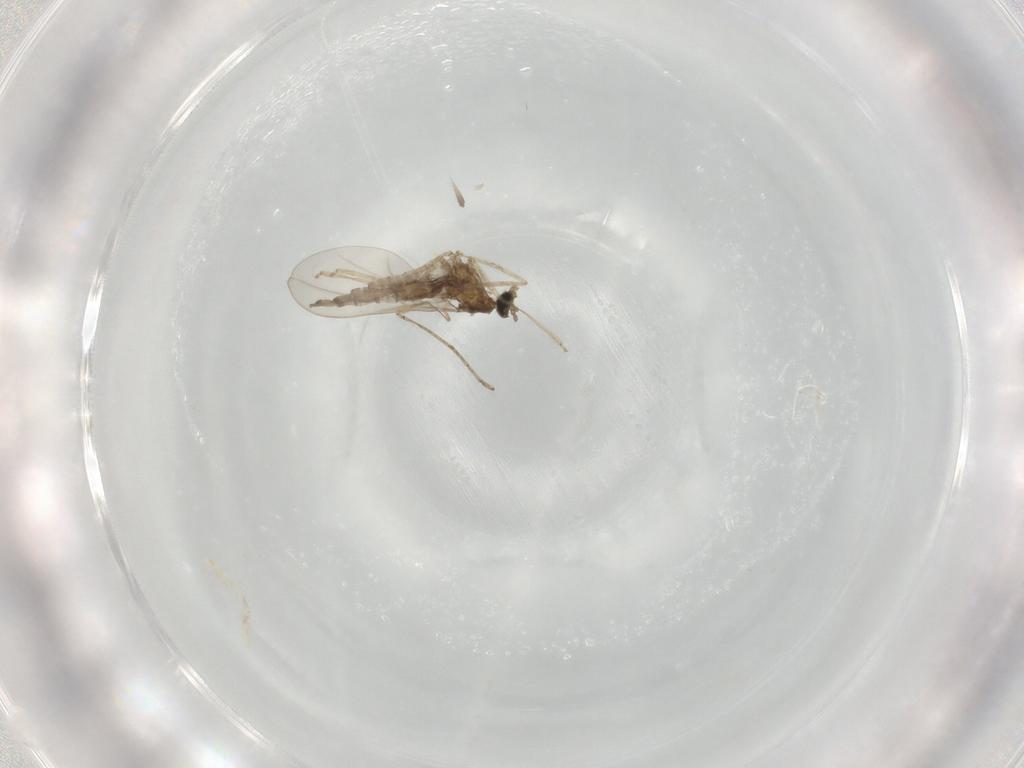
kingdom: Animalia
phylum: Arthropoda
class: Insecta
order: Diptera
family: Cecidomyiidae
